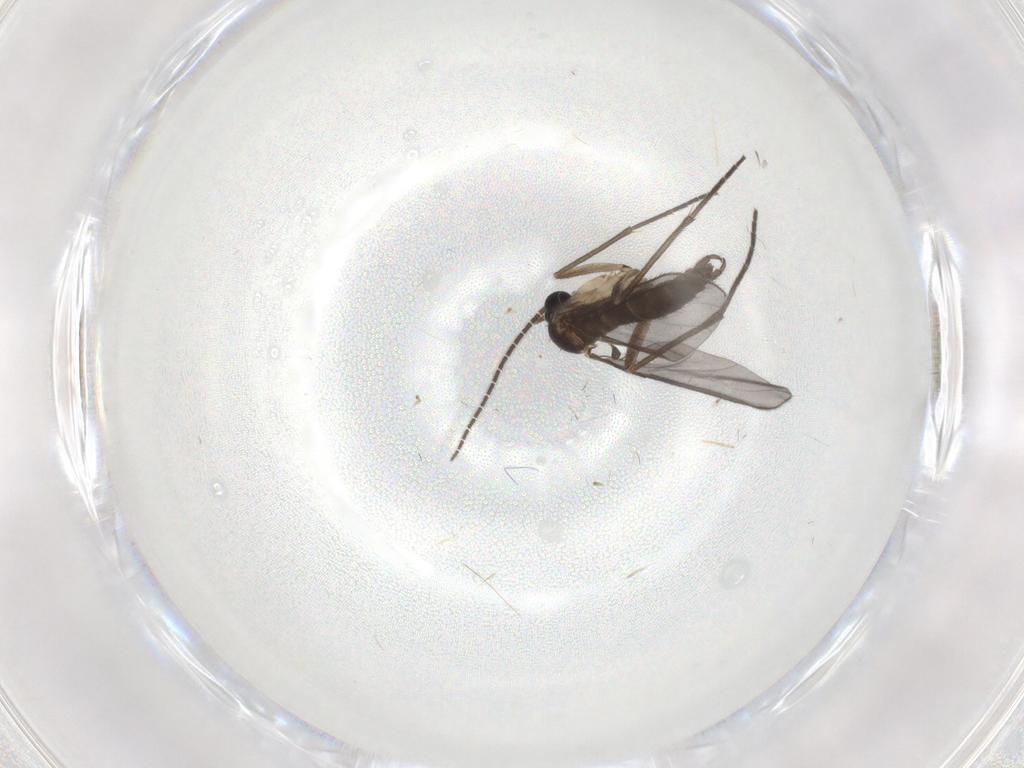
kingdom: Animalia
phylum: Arthropoda
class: Insecta
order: Diptera
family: Sciaridae
